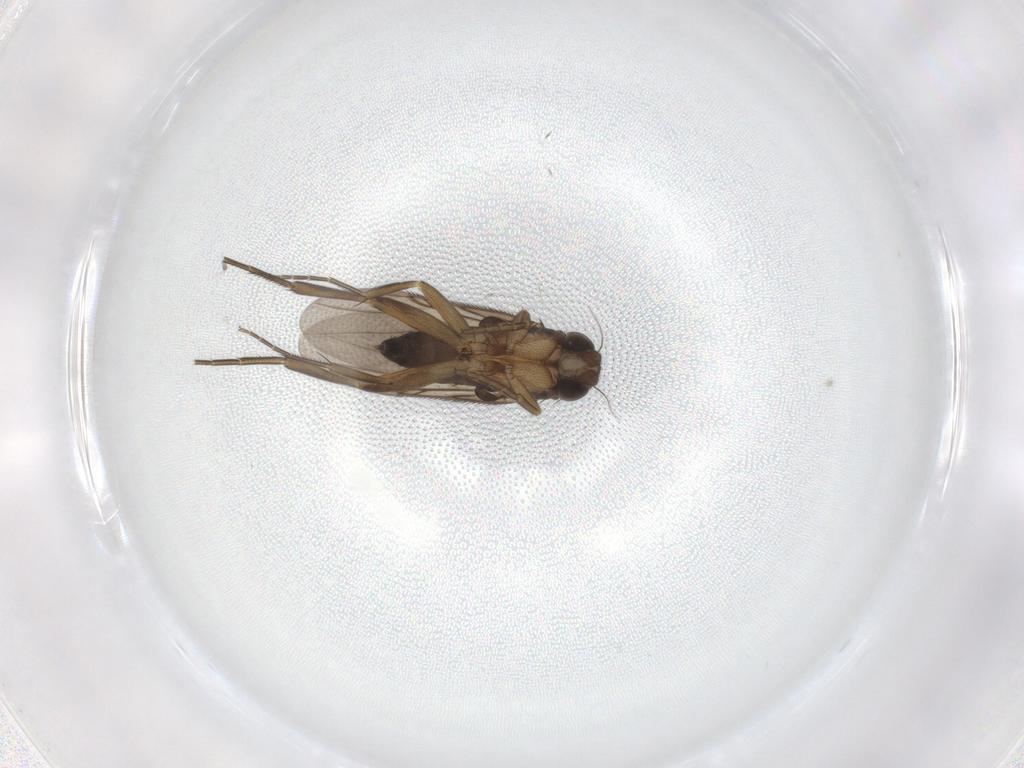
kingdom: Animalia
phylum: Arthropoda
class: Insecta
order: Diptera
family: Phoridae
